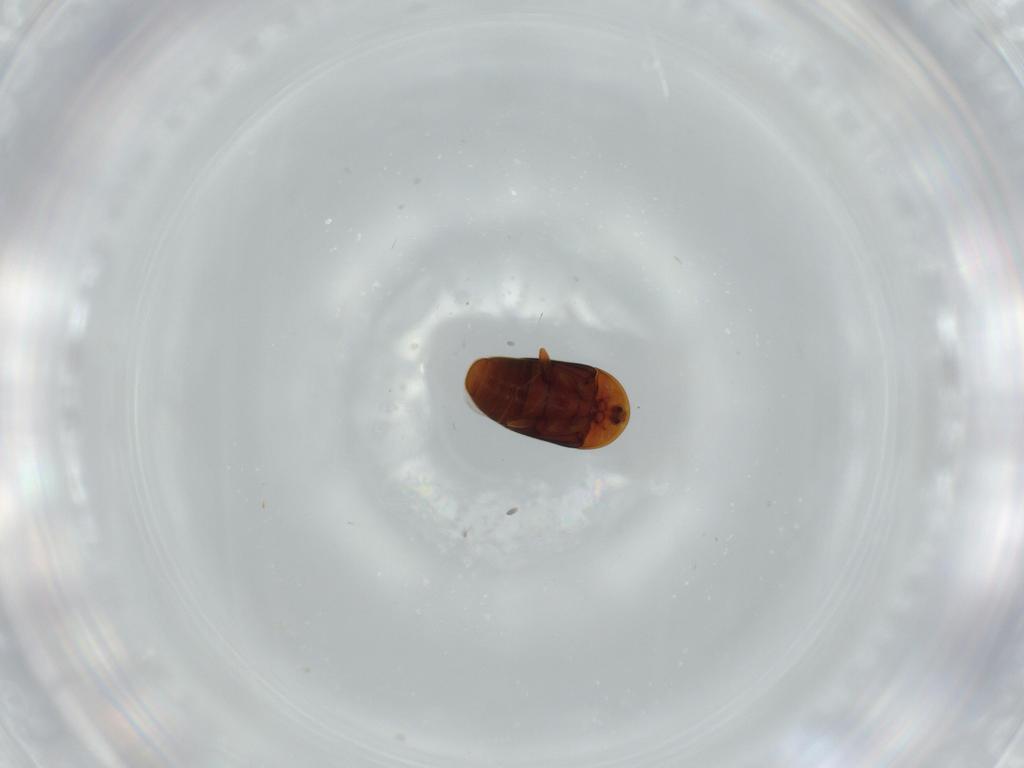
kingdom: Animalia
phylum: Arthropoda
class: Insecta
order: Coleoptera
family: Corylophidae
